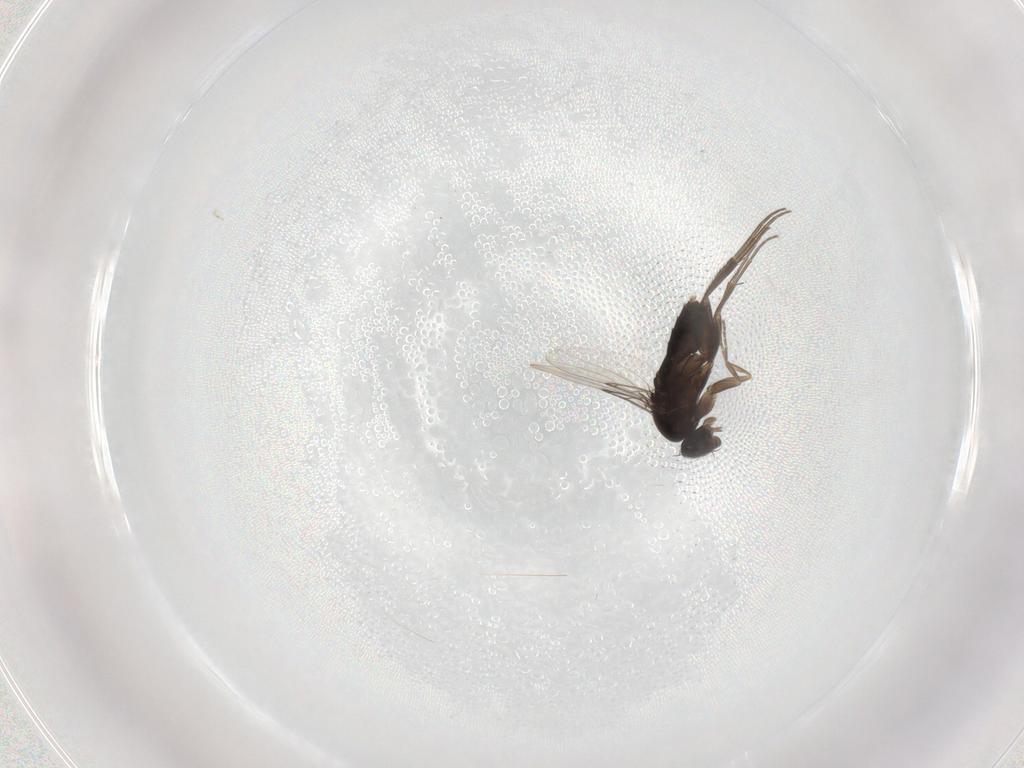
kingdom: Animalia
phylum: Arthropoda
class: Insecta
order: Diptera
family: Phoridae
